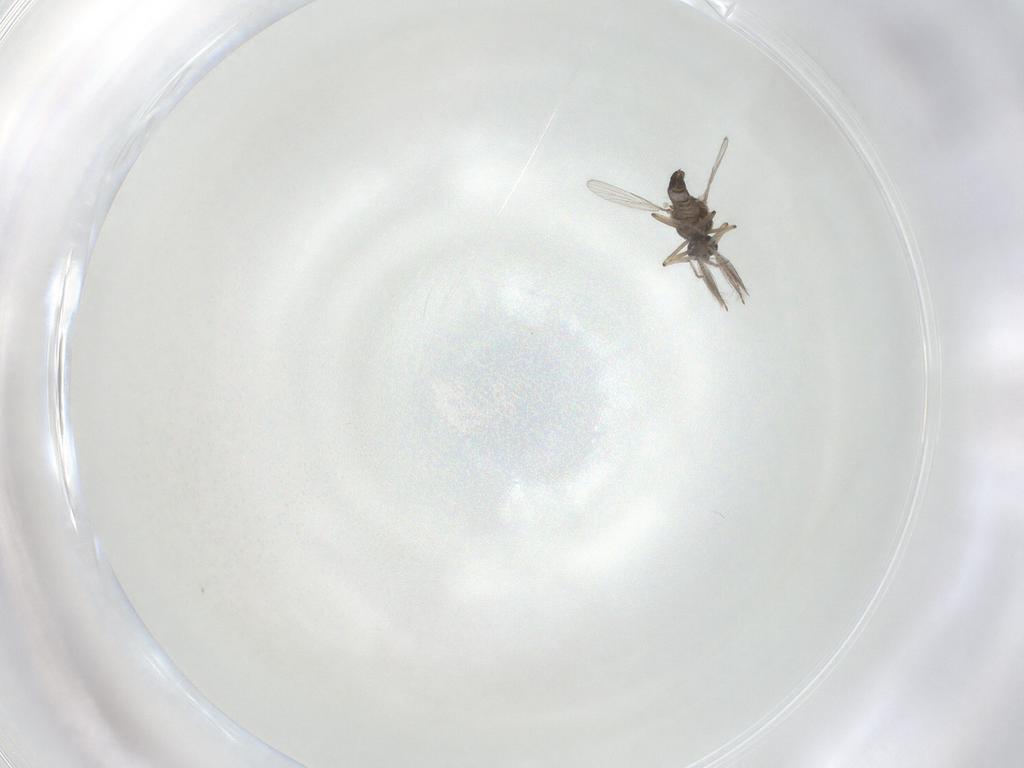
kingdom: Animalia
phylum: Arthropoda
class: Insecta
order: Diptera
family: Ceratopogonidae
